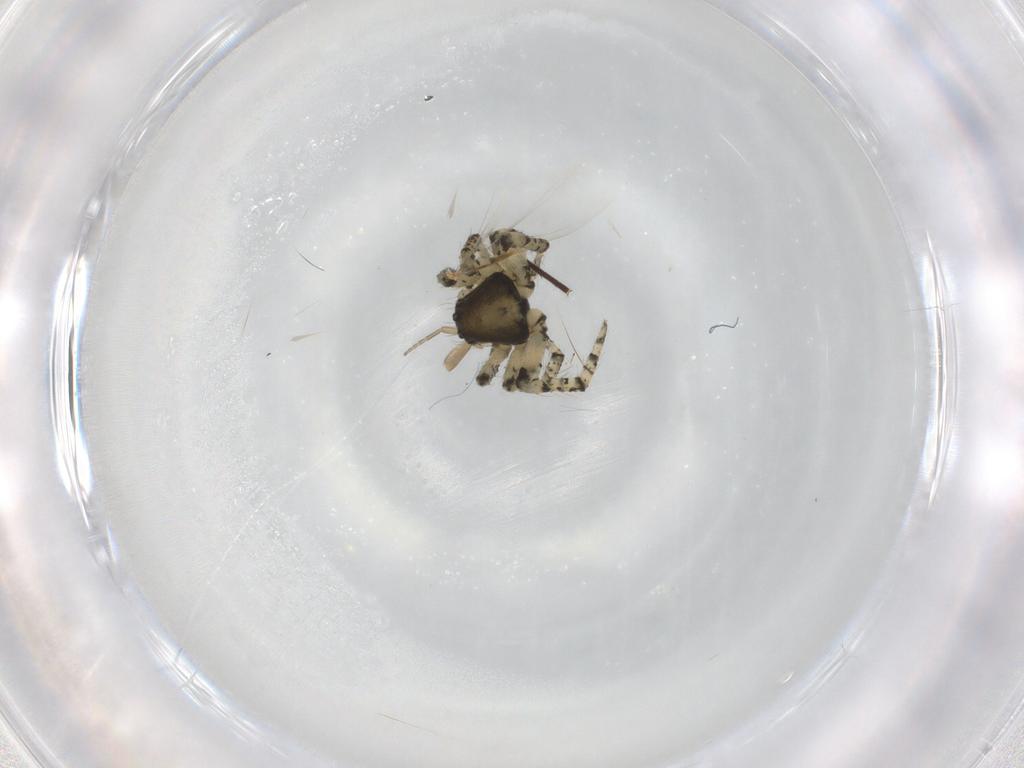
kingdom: Animalia
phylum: Arthropoda
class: Arachnida
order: Araneae
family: Theridiidae
